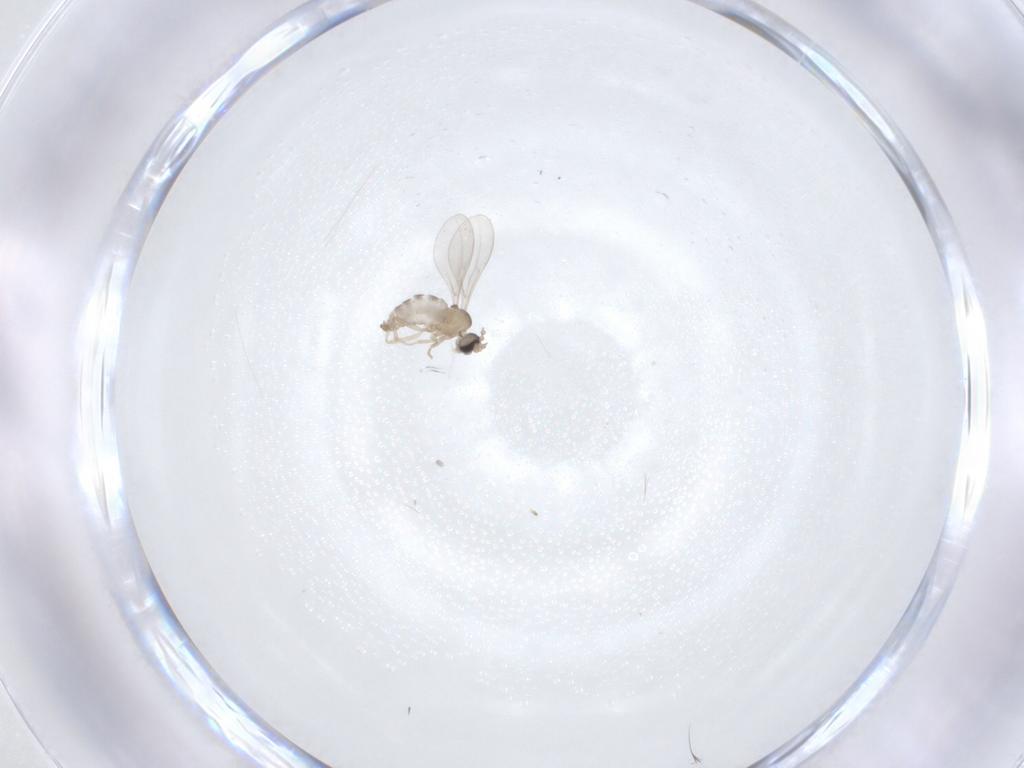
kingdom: Animalia
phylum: Arthropoda
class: Insecta
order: Diptera
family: Cecidomyiidae
